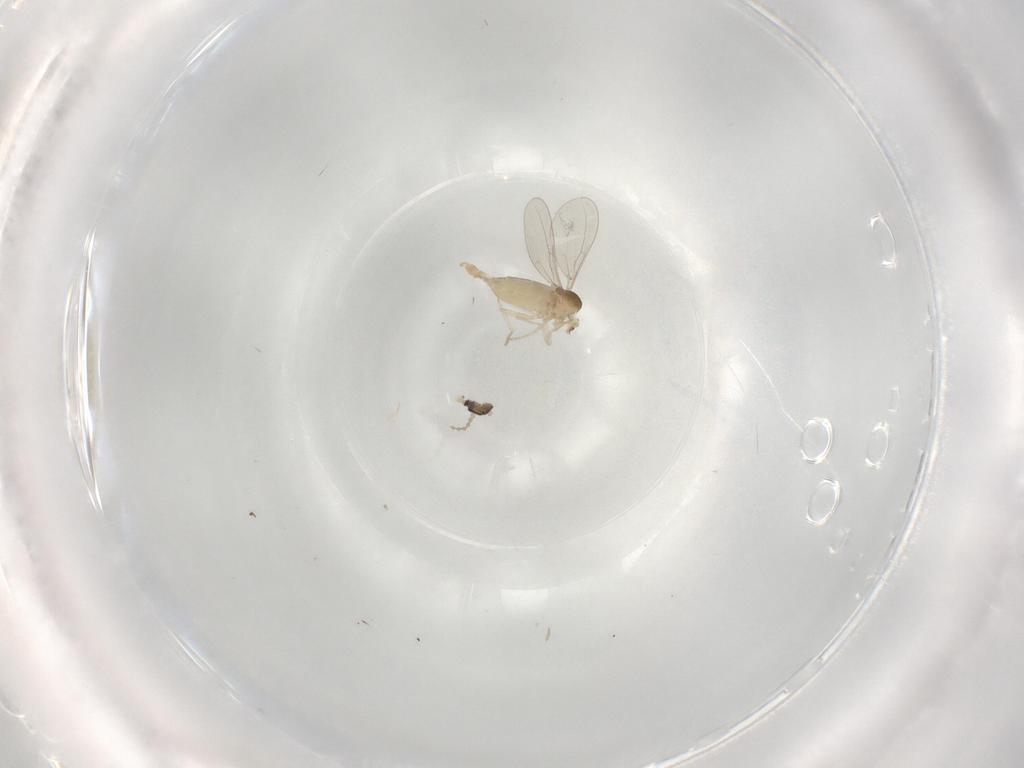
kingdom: Animalia
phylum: Arthropoda
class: Insecta
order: Diptera
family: Cecidomyiidae
